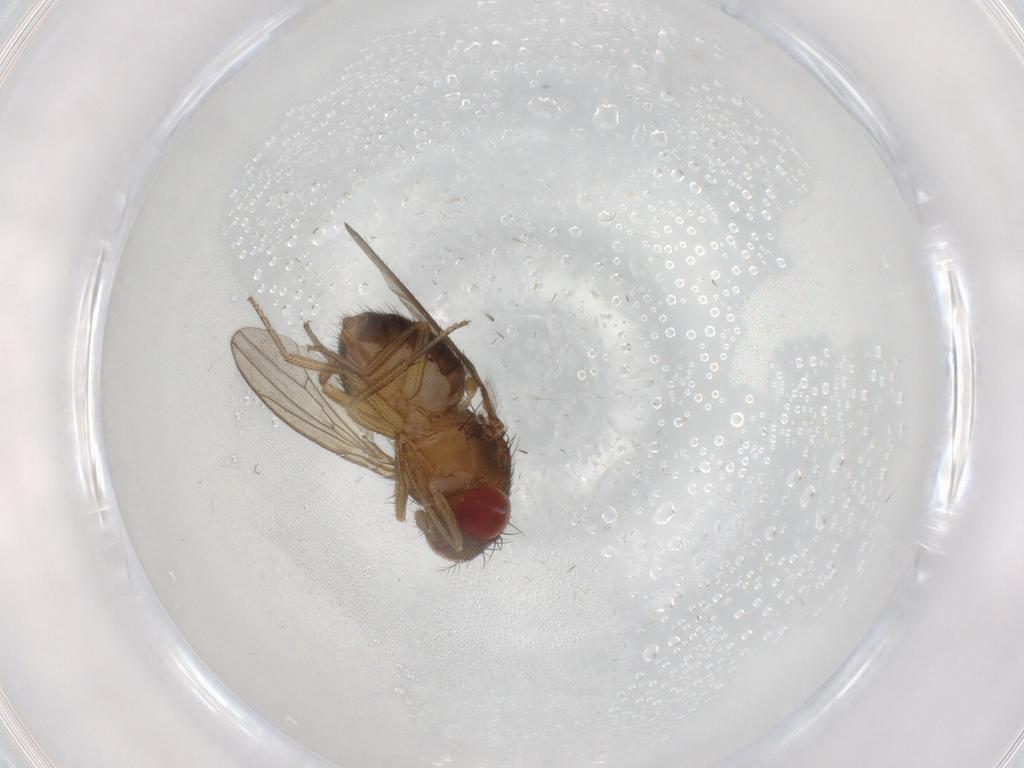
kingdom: Animalia
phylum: Arthropoda
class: Insecta
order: Diptera
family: Drosophilidae
